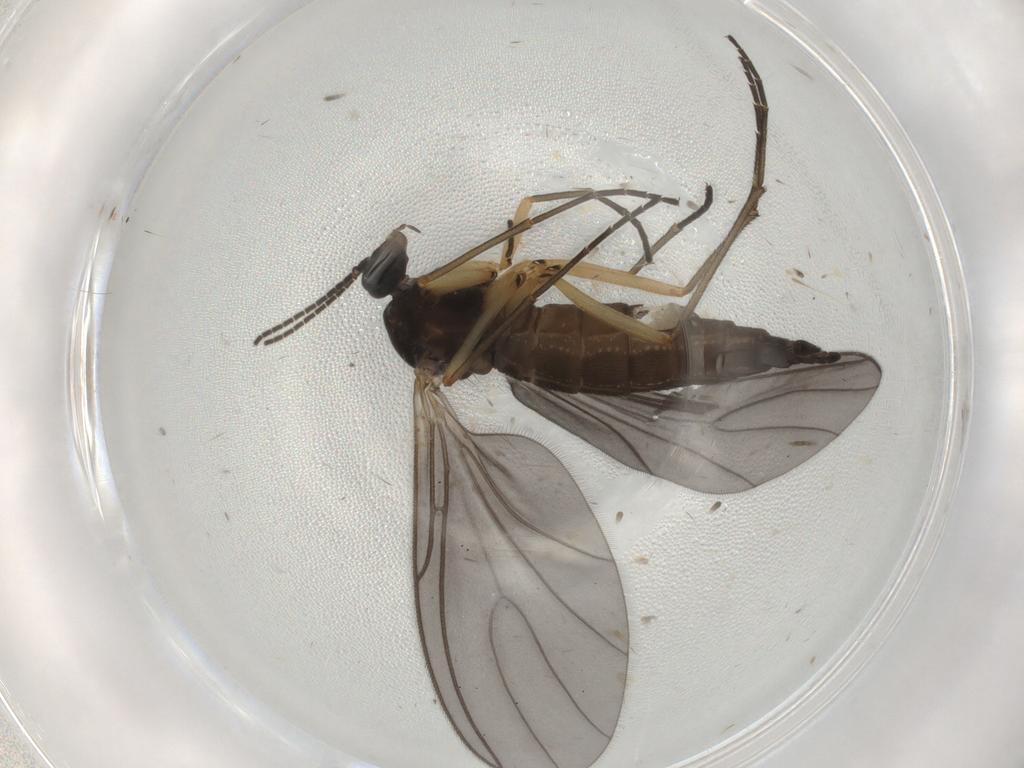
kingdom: Animalia
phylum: Arthropoda
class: Insecta
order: Diptera
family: Sciaridae
